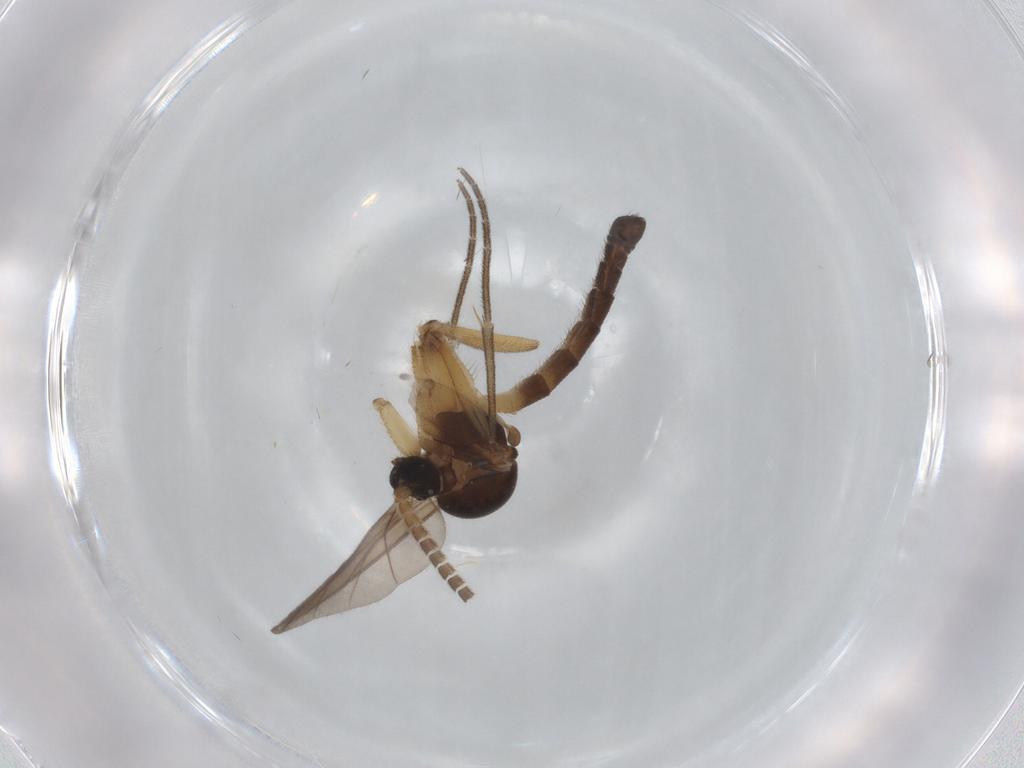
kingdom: Animalia
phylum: Arthropoda
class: Insecta
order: Diptera
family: Mycetophilidae
